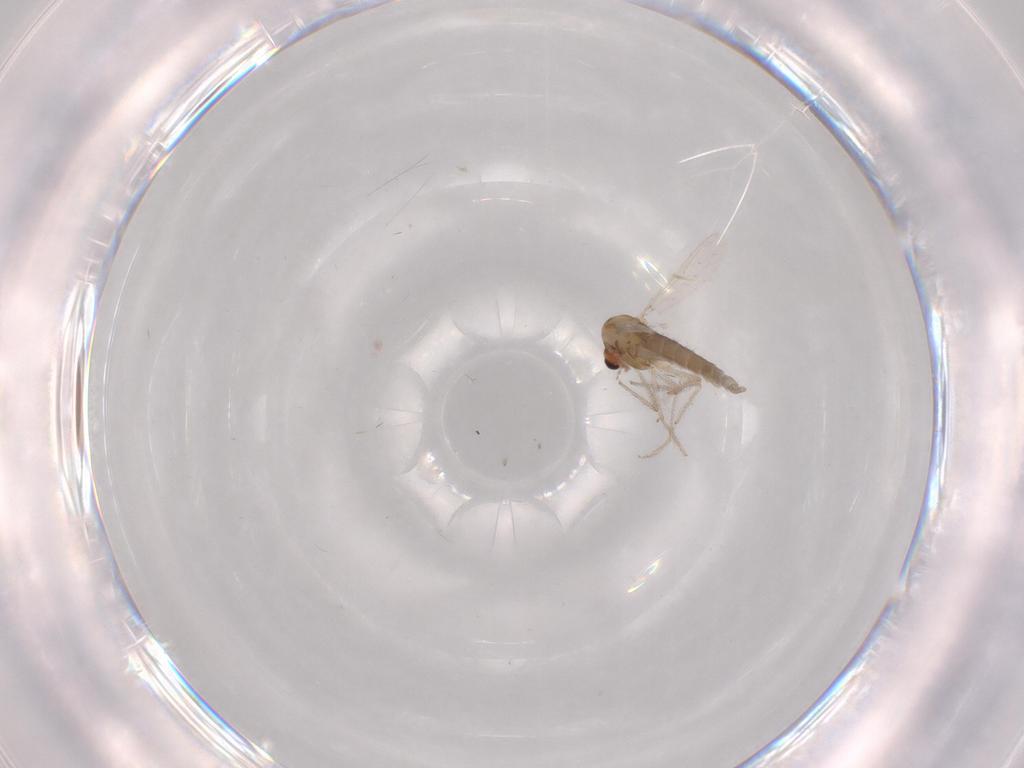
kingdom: Animalia
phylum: Arthropoda
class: Insecta
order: Diptera
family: Chironomidae
